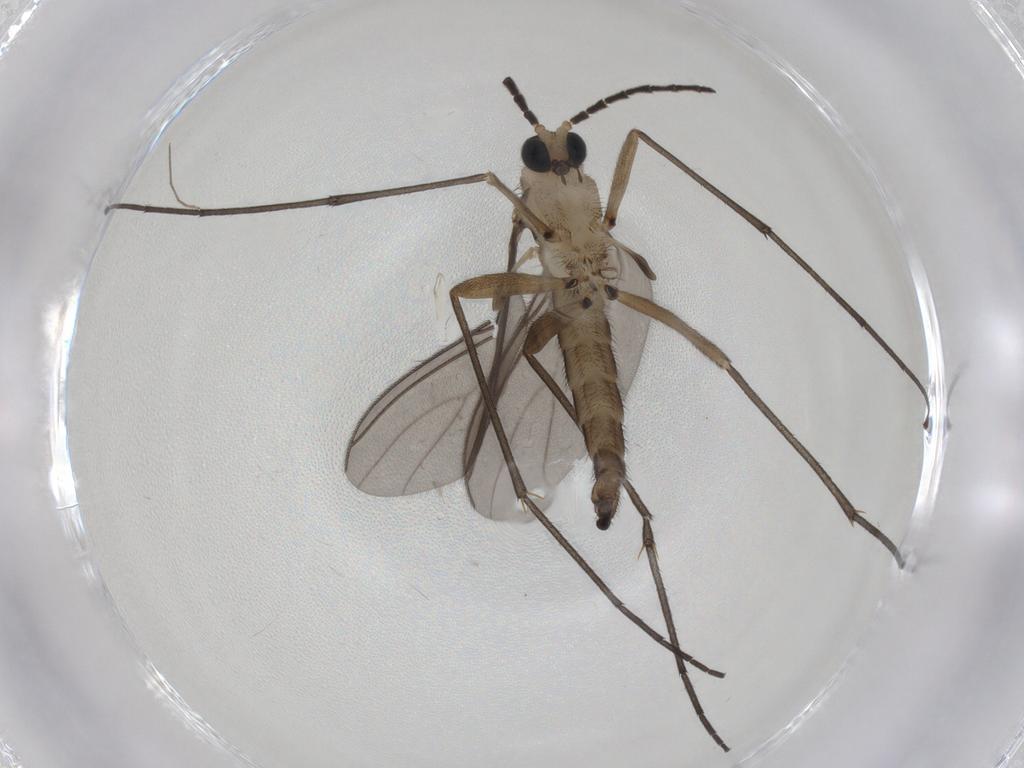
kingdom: Animalia
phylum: Arthropoda
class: Insecta
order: Diptera
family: Sciaridae
